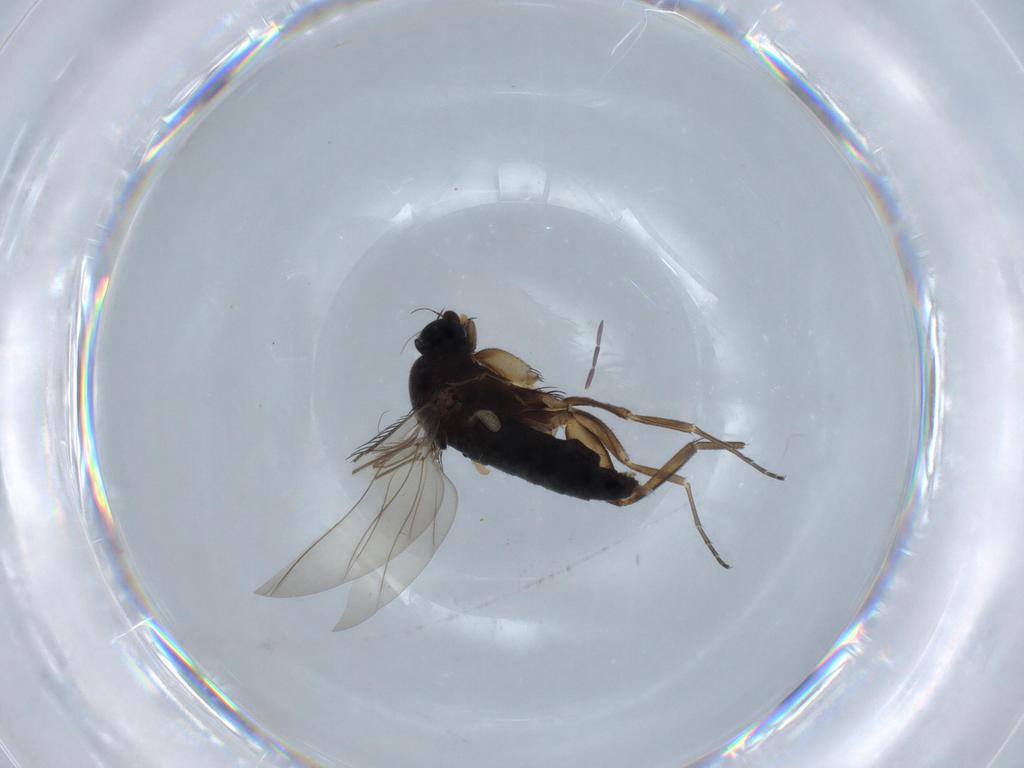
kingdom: Animalia
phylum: Arthropoda
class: Insecta
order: Diptera
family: Phoridae
